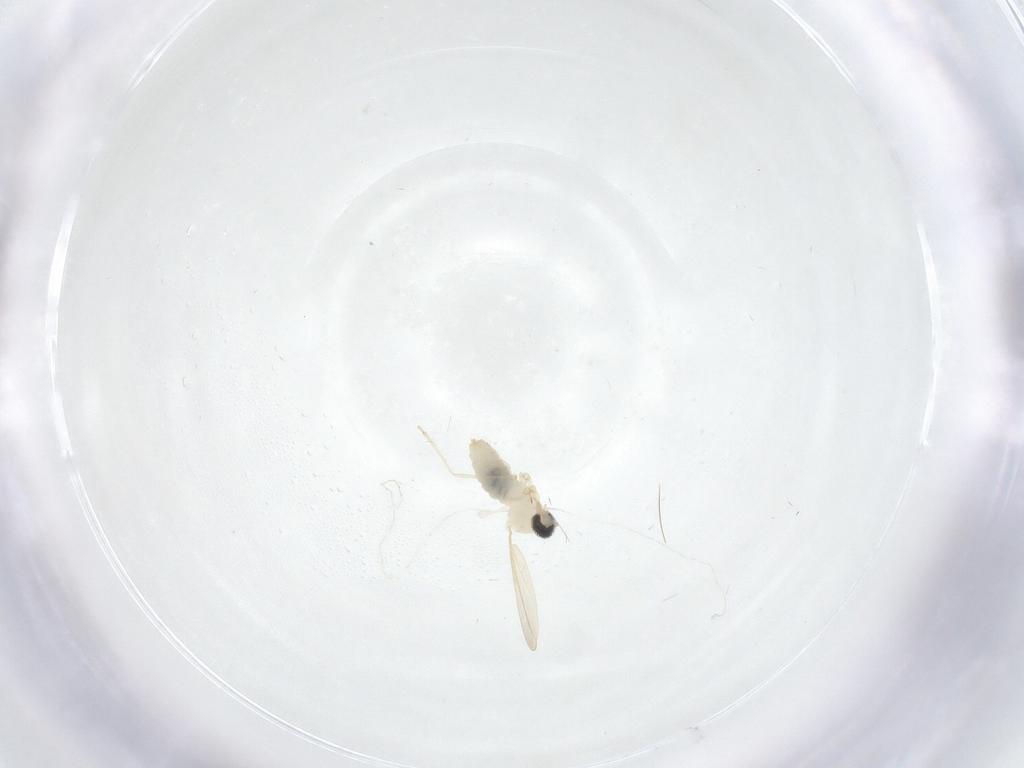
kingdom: Animalia
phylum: Arthropoda
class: Insecta
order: Diptera
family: Cecidomyiidae
